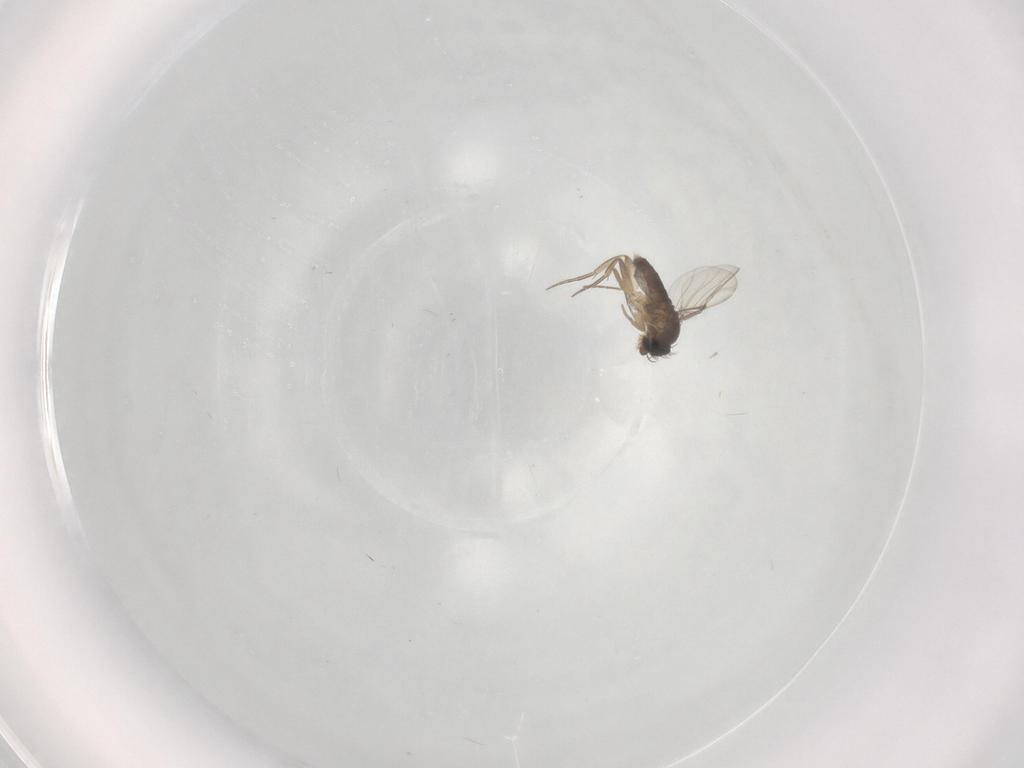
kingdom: Animalia
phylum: Arthropoda
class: Insecta
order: Diptera
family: Phoridae
